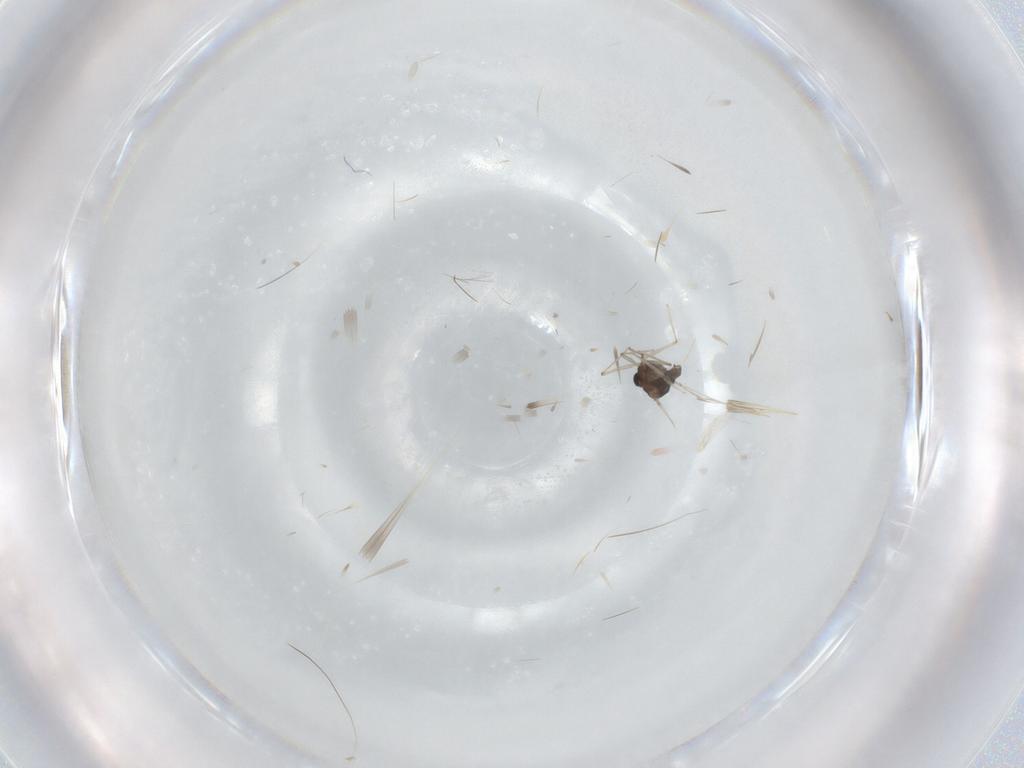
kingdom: Animalia
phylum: Arthropoda
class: Insecta
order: Diptera
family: Chironomidae
